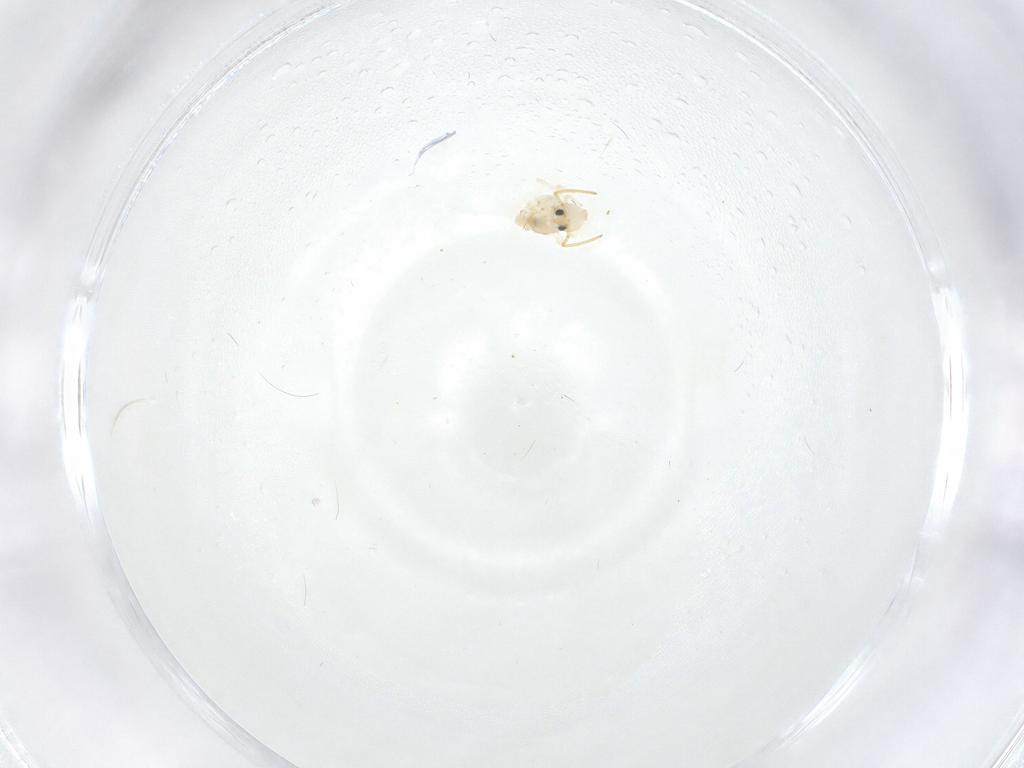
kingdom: Animalia
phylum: Arthropoda
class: Insecta
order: Diptera
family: Chironomidae
